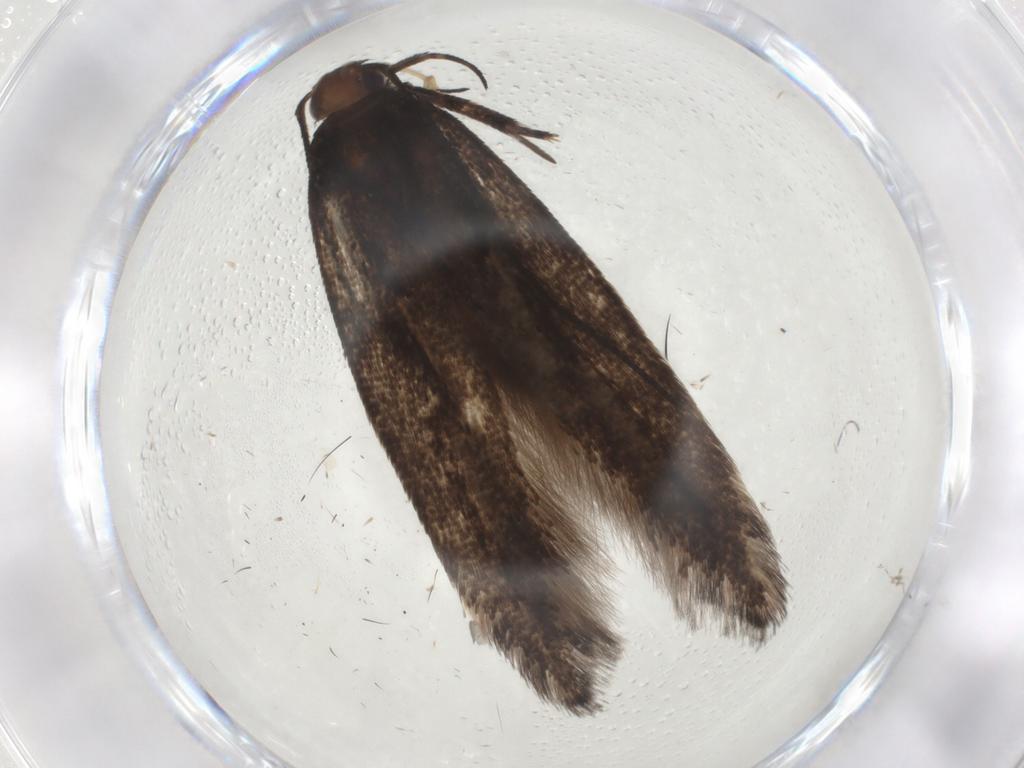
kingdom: Animalia
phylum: Arthropoda
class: Insecta
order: Lepidoptera
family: Gelechiidae
